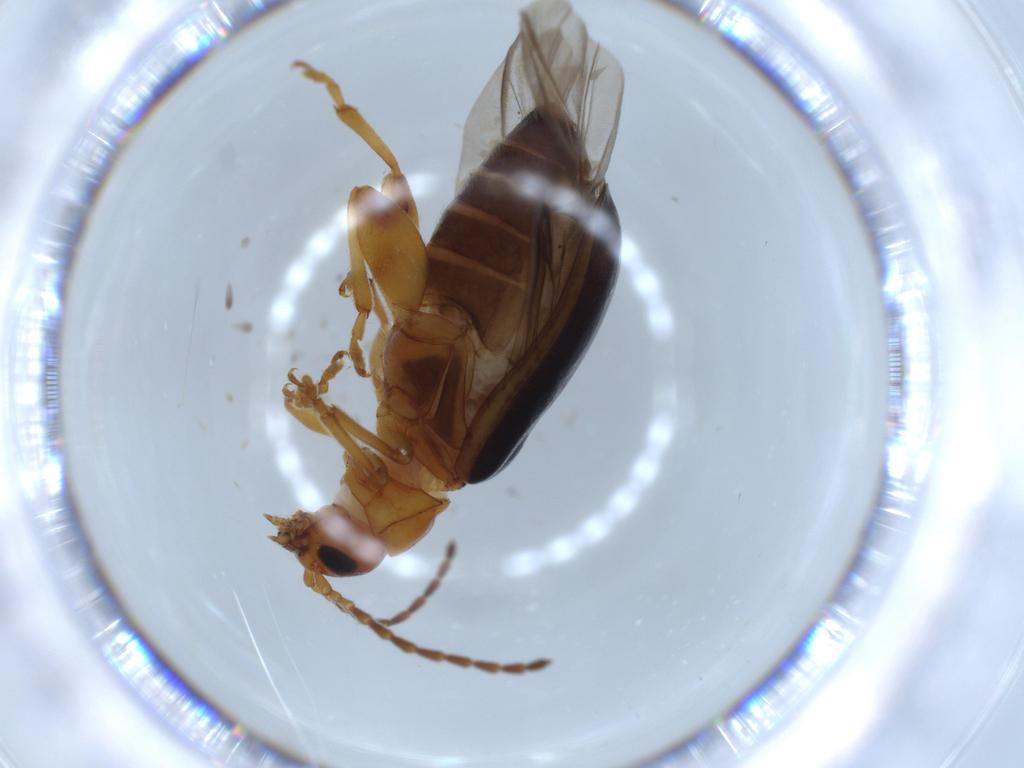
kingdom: Animalia
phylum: Arthropoda
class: Insecta
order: Coleoptera
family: Chrysomelidae
